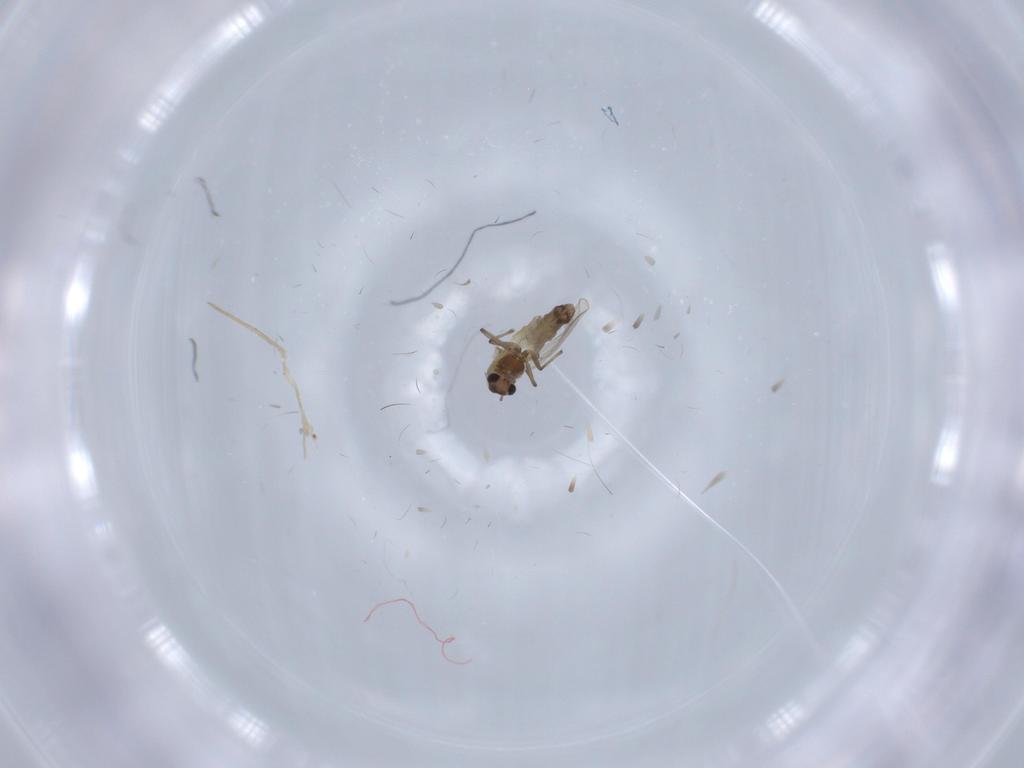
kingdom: Animalia
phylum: Arthropoda
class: Insecta
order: Diptera
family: Chironomidae
